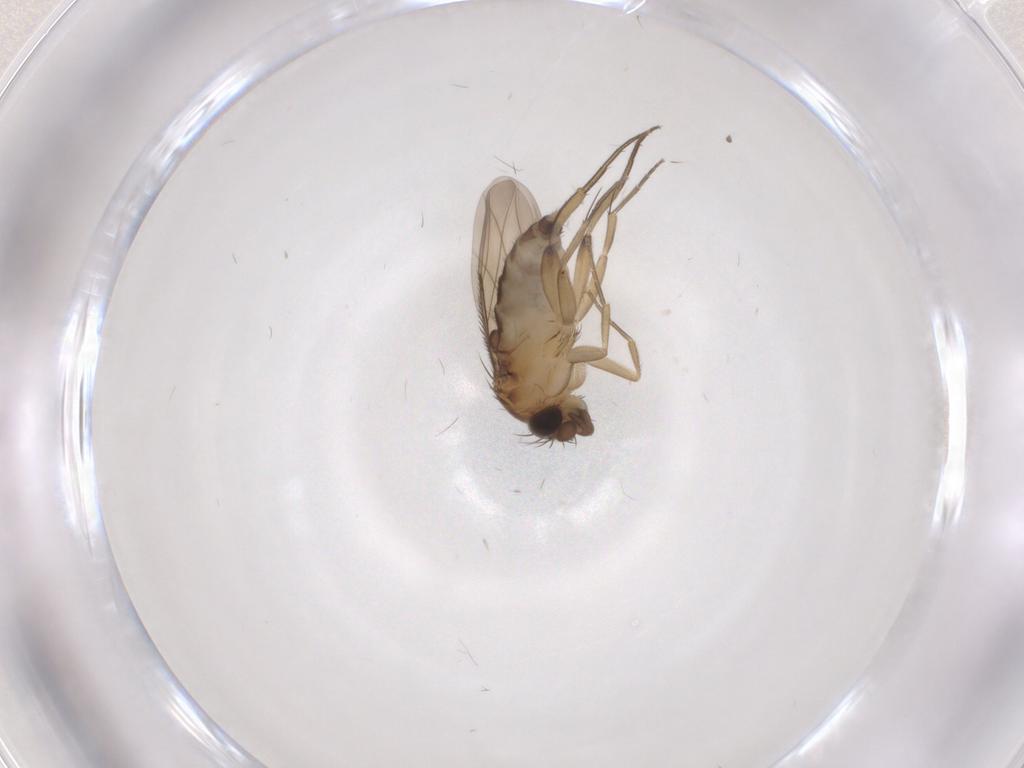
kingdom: Animalia
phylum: Arthropoda
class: Insecta
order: Diptera
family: Phoridae
